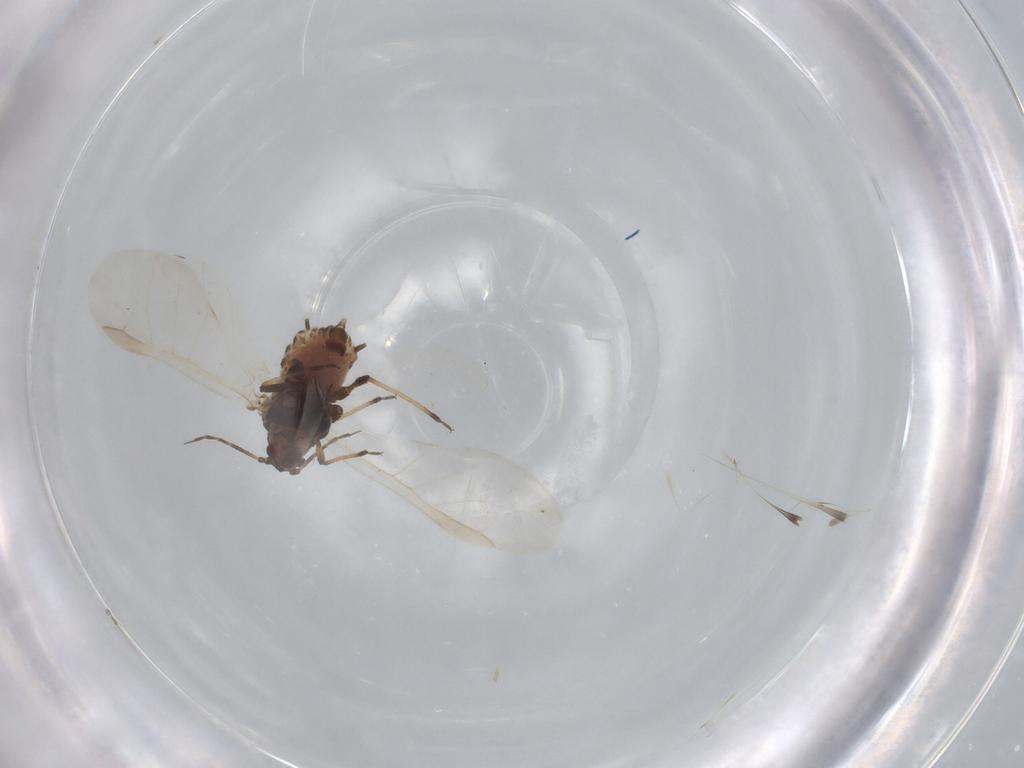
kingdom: Animalia
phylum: Arthropoda
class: Insecta
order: Hemiptera
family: Aphididae
